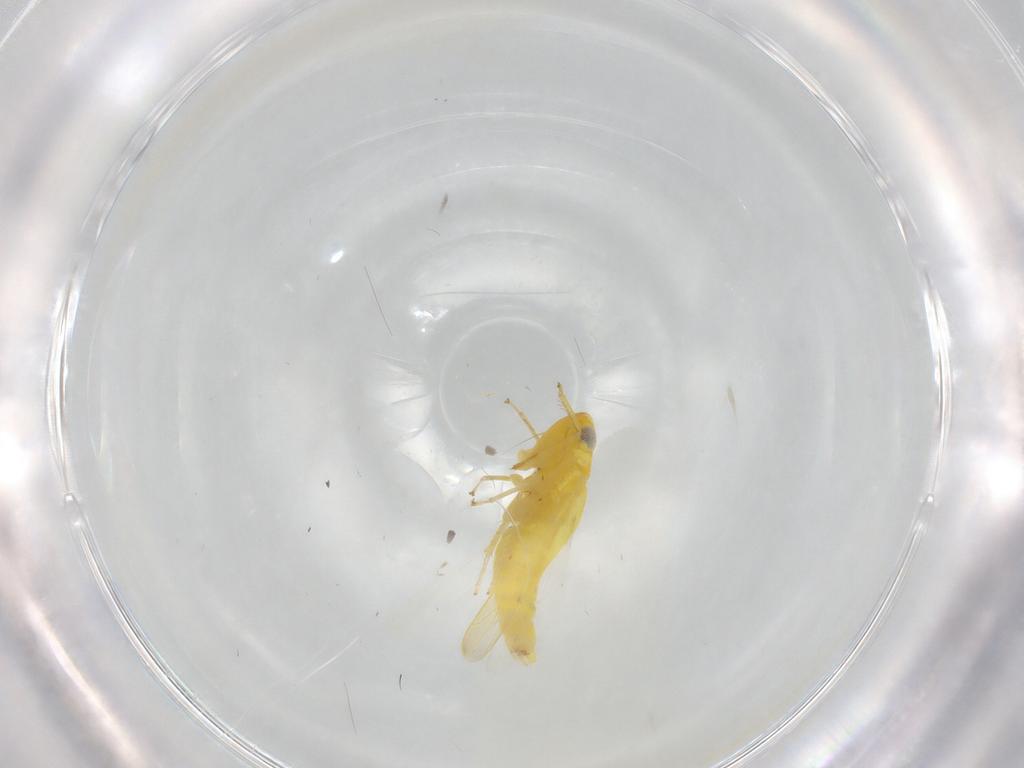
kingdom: Animalia
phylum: Arthropoda
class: Insecta
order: Hemiptera
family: Cicadellidae
